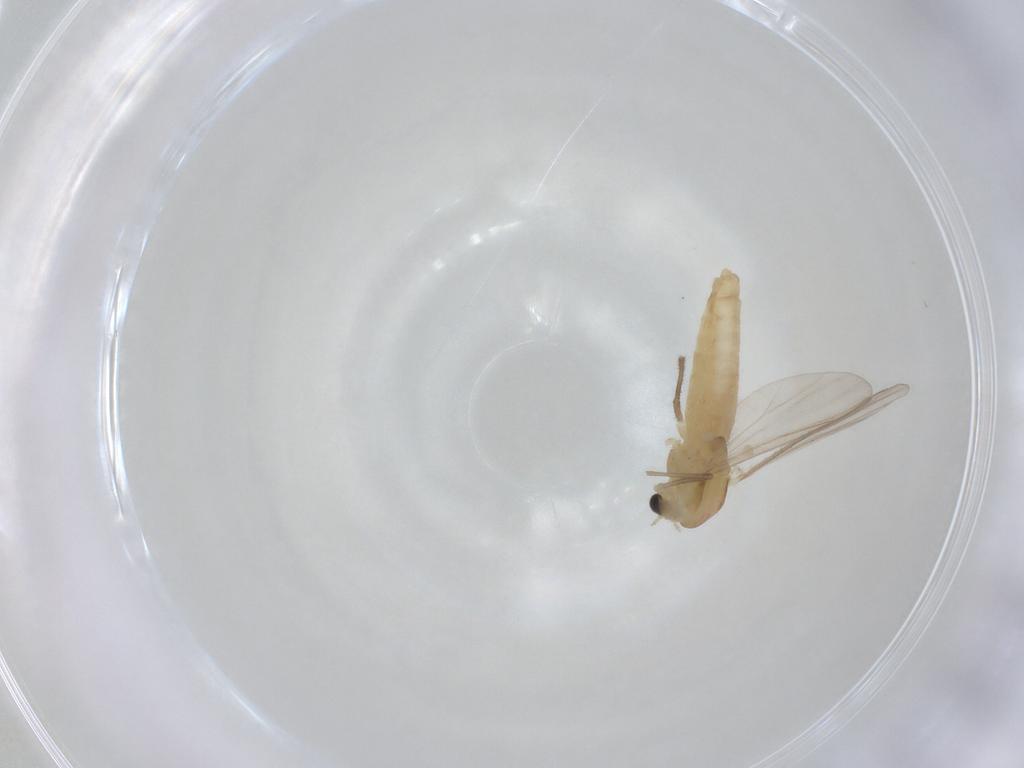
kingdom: Animalia
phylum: Arthropoda
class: Insecta
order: Diptera
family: Chironomidae
